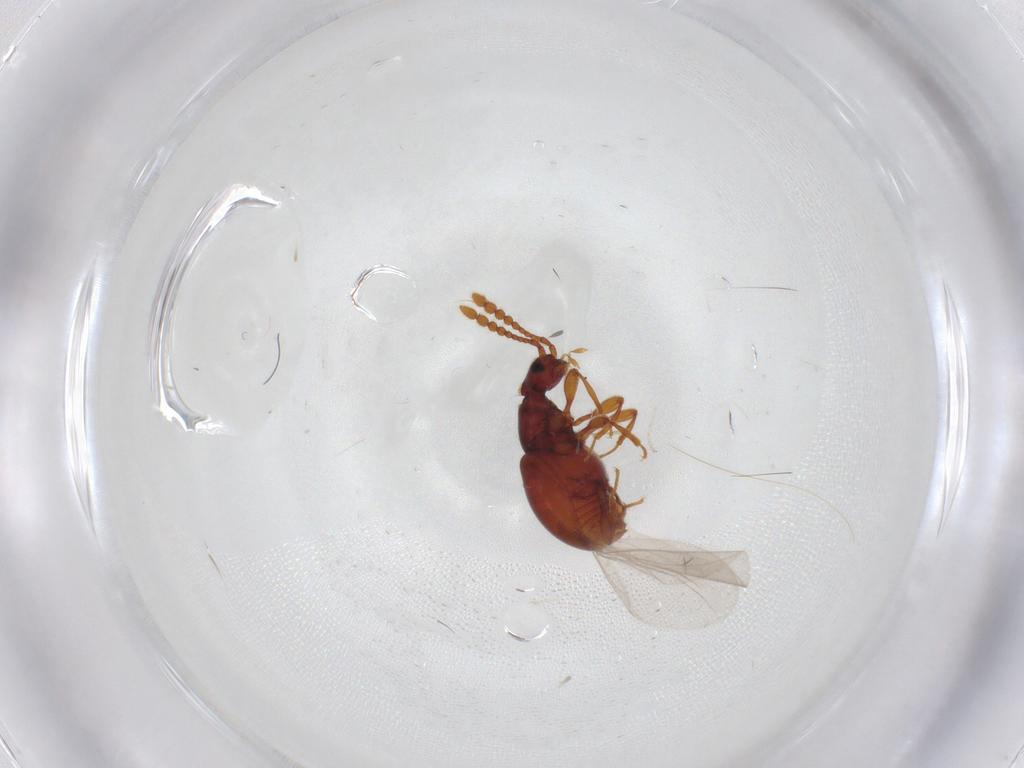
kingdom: Animalia
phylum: Arthropoda
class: Insecta
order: Coleoptera
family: Staphylinidae
